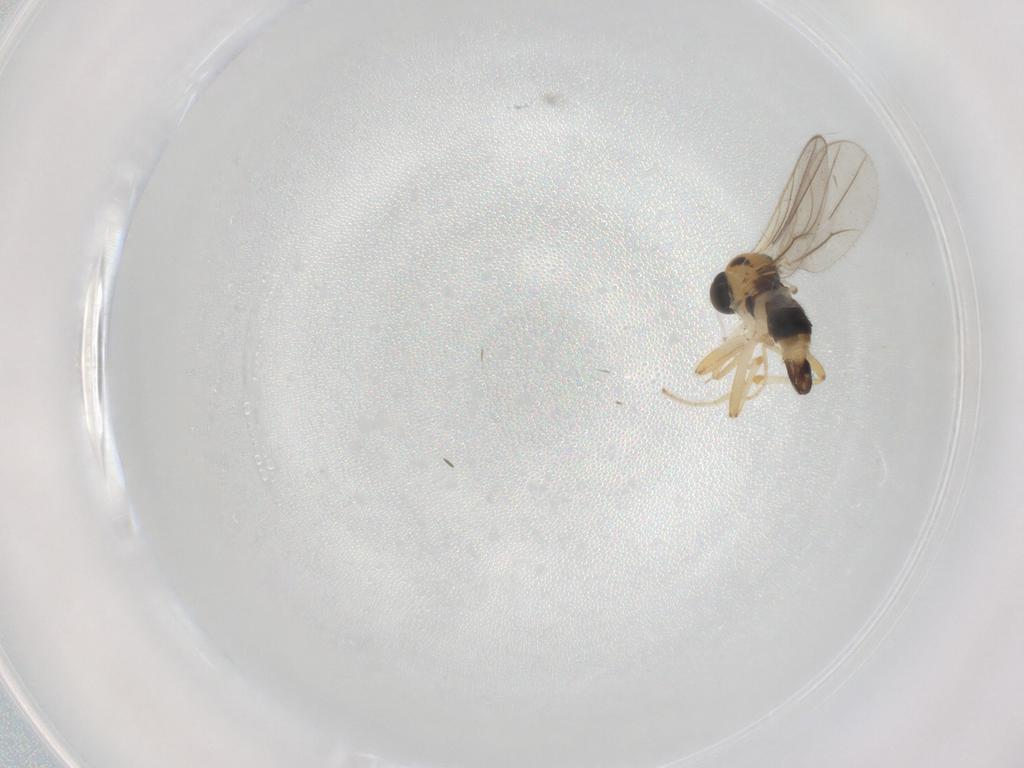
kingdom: Animalia
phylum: Arthropoda
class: Insecta
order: Diptera
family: Hybotidae
